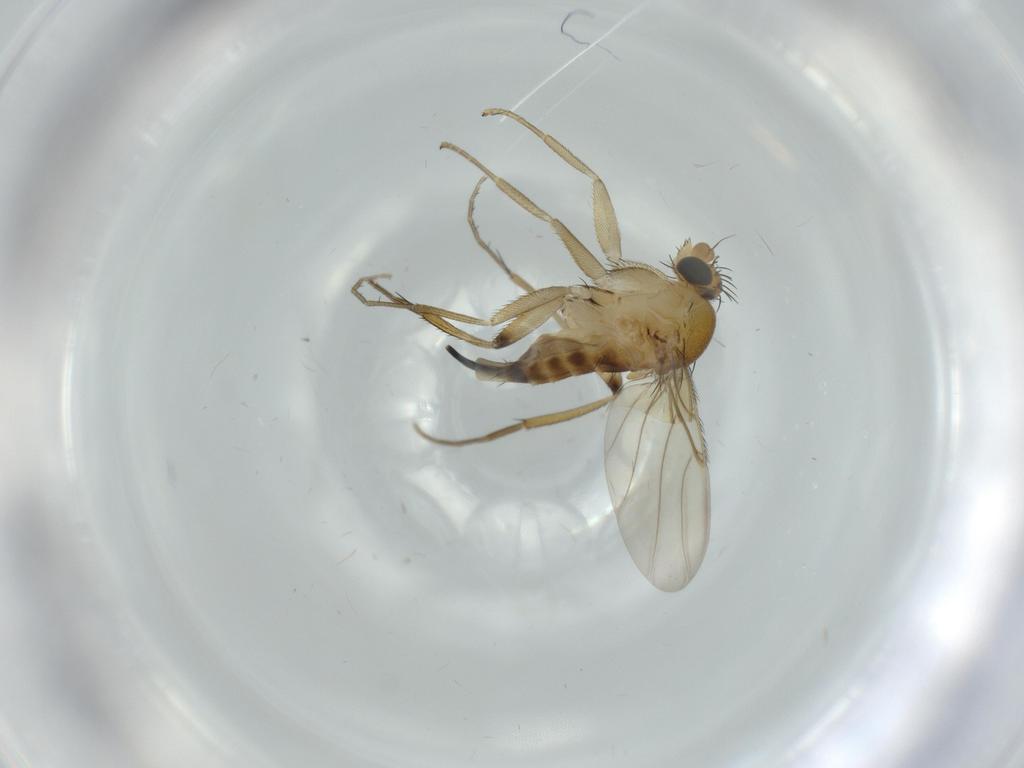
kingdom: Animalia
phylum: Arthropoda
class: Insecta
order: Diptera
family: Phoridae
